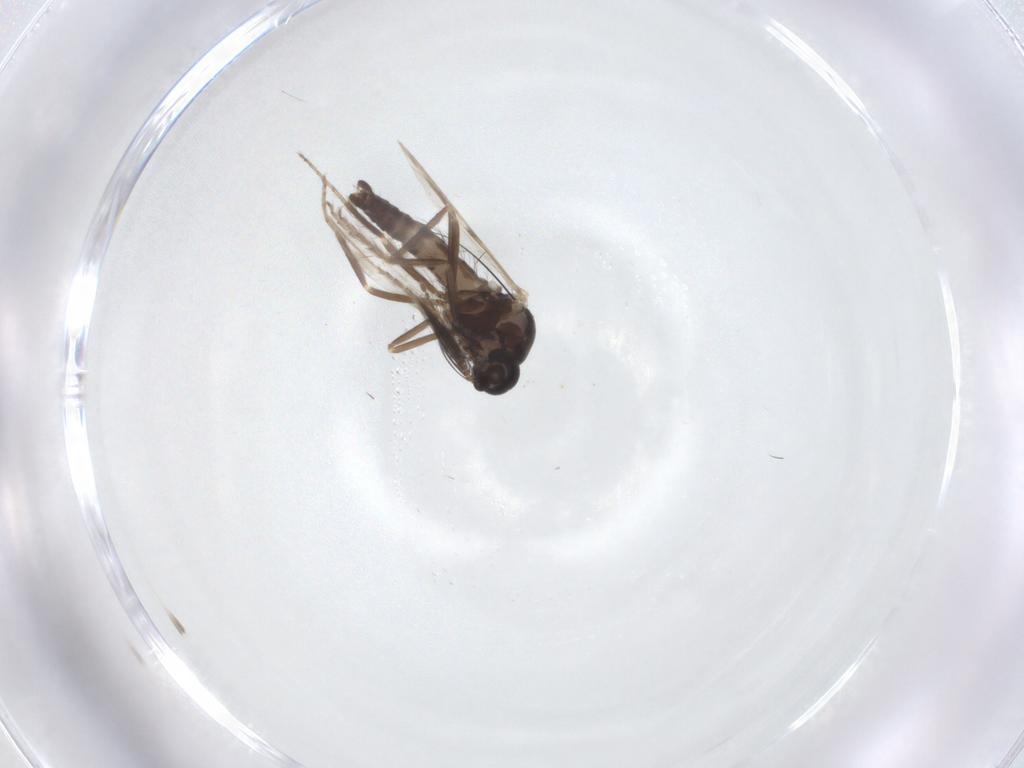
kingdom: Animalia
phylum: Arthropoda
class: Insecta
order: Diptera
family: Ceratopogonidae
